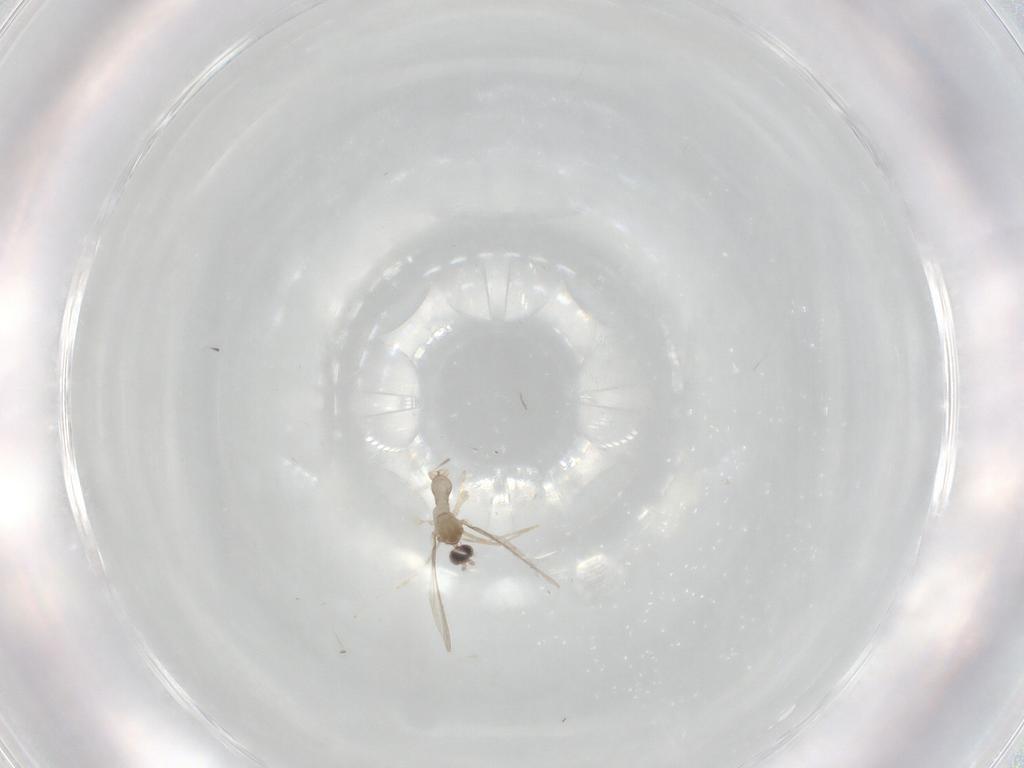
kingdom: Animalia
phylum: Arthropoda
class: Insecta
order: Diptera
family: Cecidomyiidae
